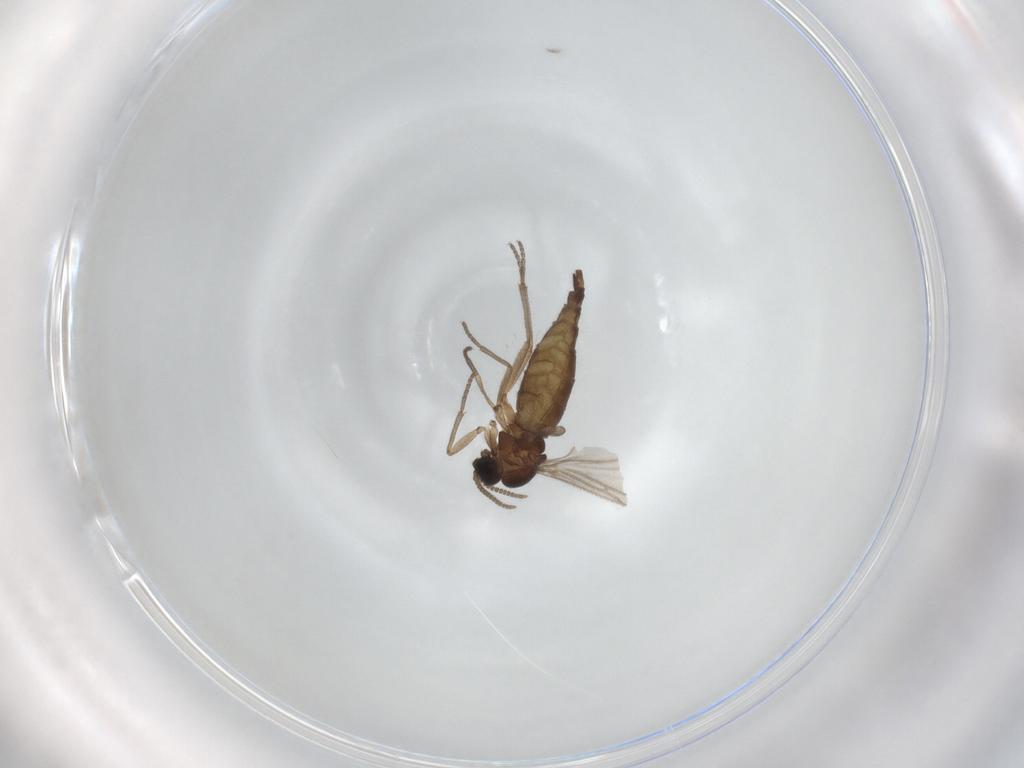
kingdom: Animalia
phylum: Arthropoda
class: Insecta
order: Diptera
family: Sciaridae
